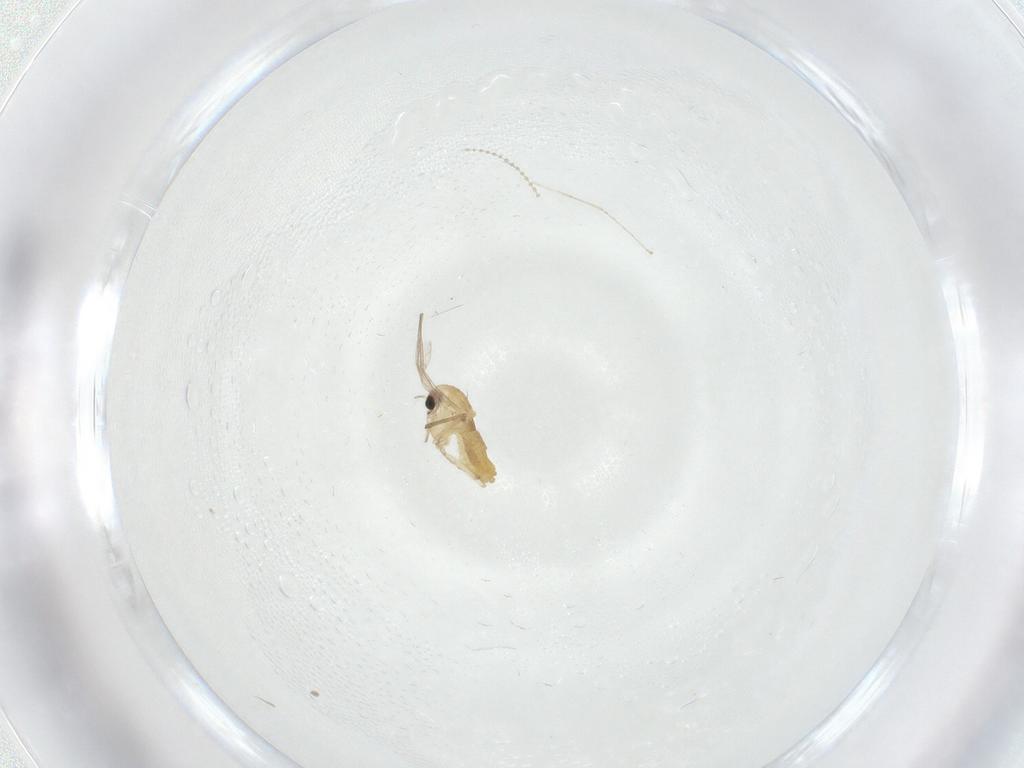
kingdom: Animalia
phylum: Arthropoda
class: Insecta
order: Diptera
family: Chironomidae
